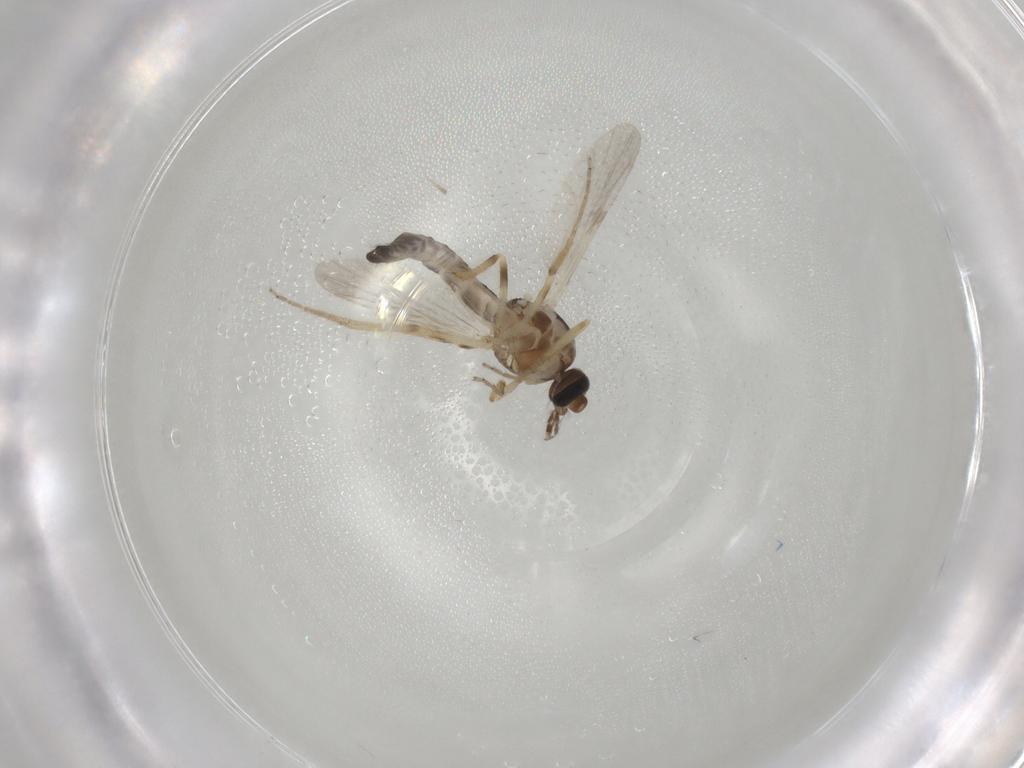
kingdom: Animalia
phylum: Arthropoda
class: Insecta
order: Diptera
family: Ceratopogonidae
